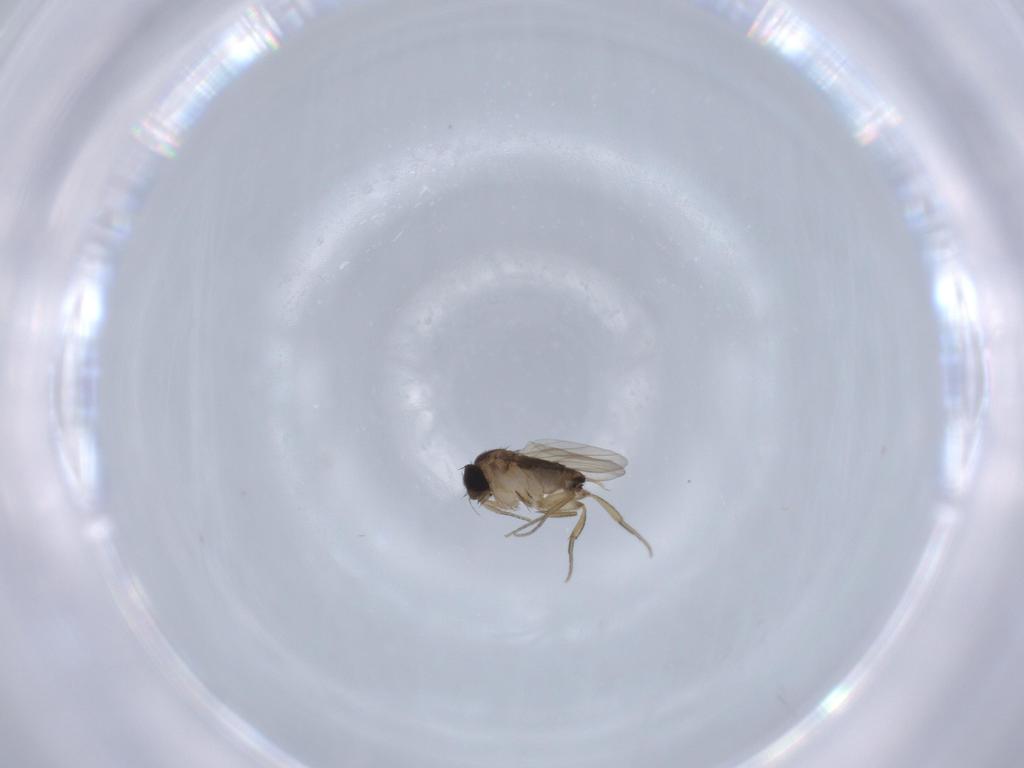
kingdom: Animalia
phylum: Arthropoda
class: Insecta
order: Diptera
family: Phoridae
